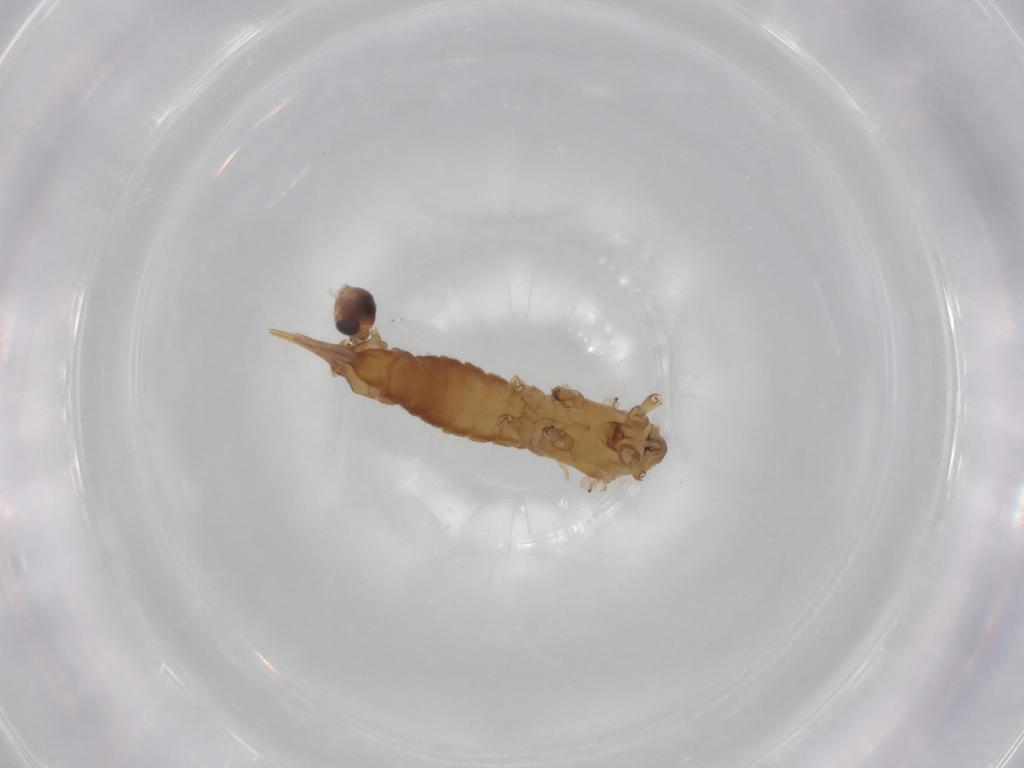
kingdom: Animalia
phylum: Arthropoda
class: Insecta
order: Diptera
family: Limoniidae
